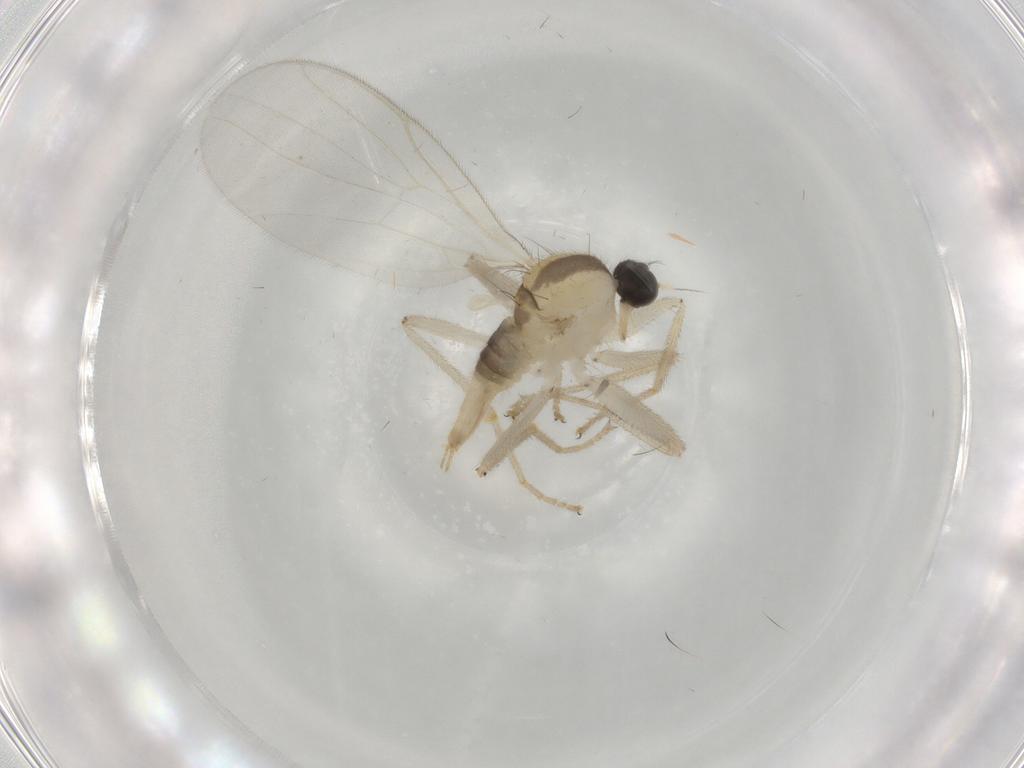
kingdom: Animalia
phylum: Arthropoda
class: Insecta
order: Diptera
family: Hybotidae
